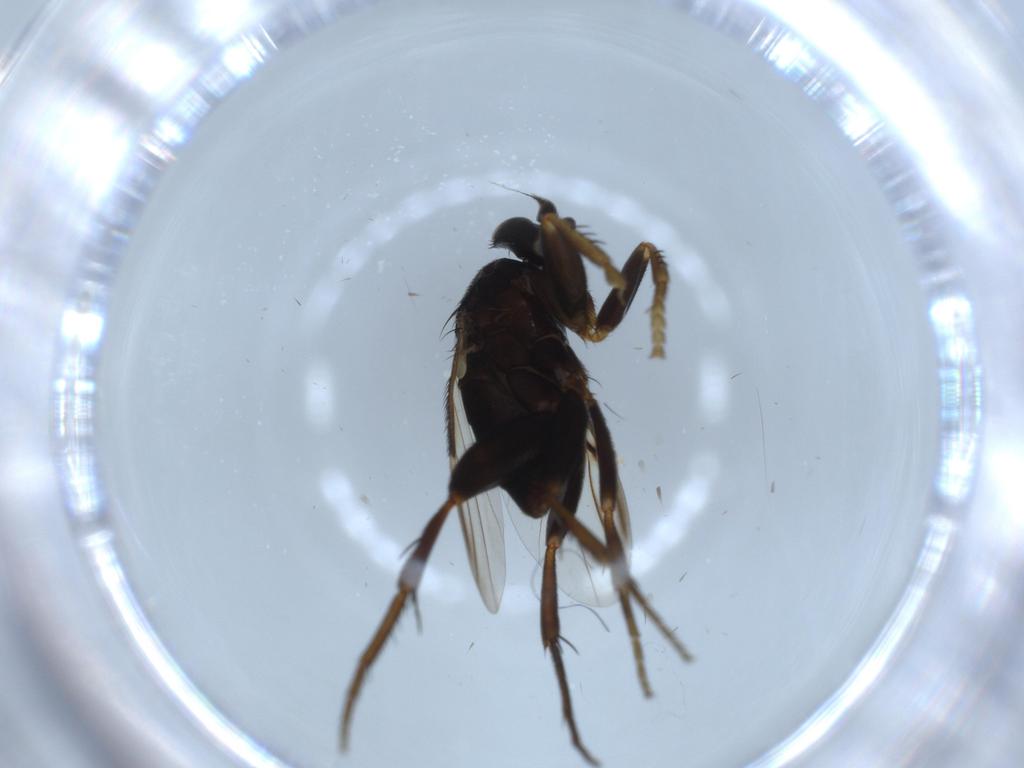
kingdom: Animalia
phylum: Arthropoda
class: Insecta
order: Diptera
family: Phoridae
